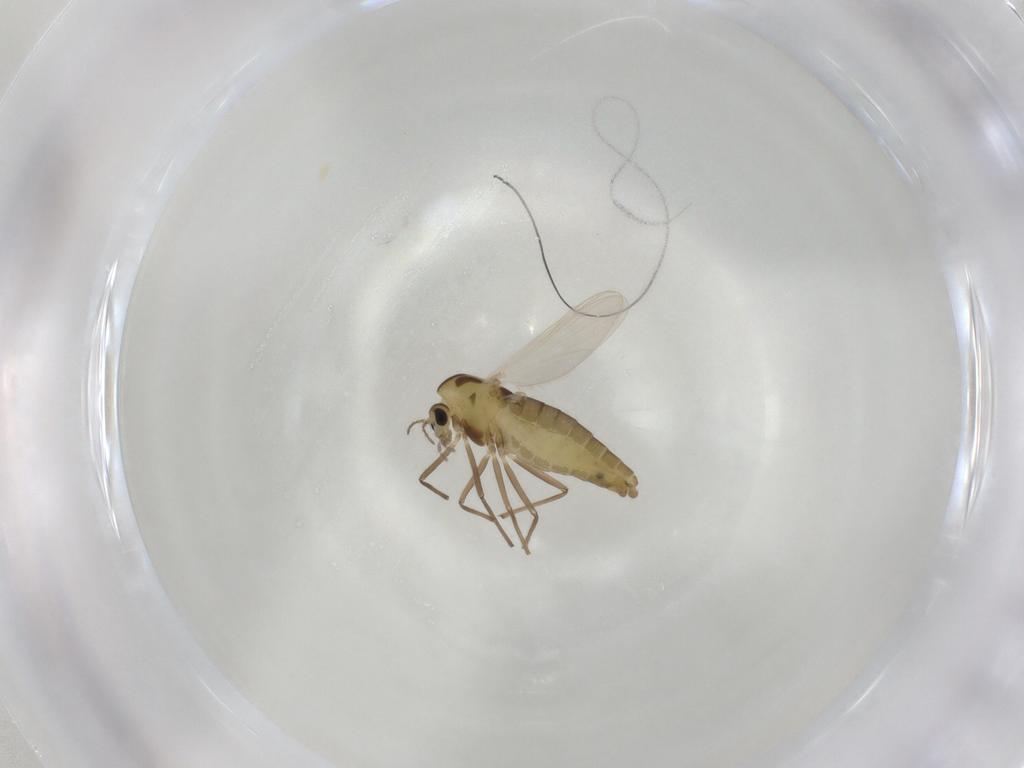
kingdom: Animalia
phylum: Arthropoda
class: Insecta
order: Diptera
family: Chironomidae
